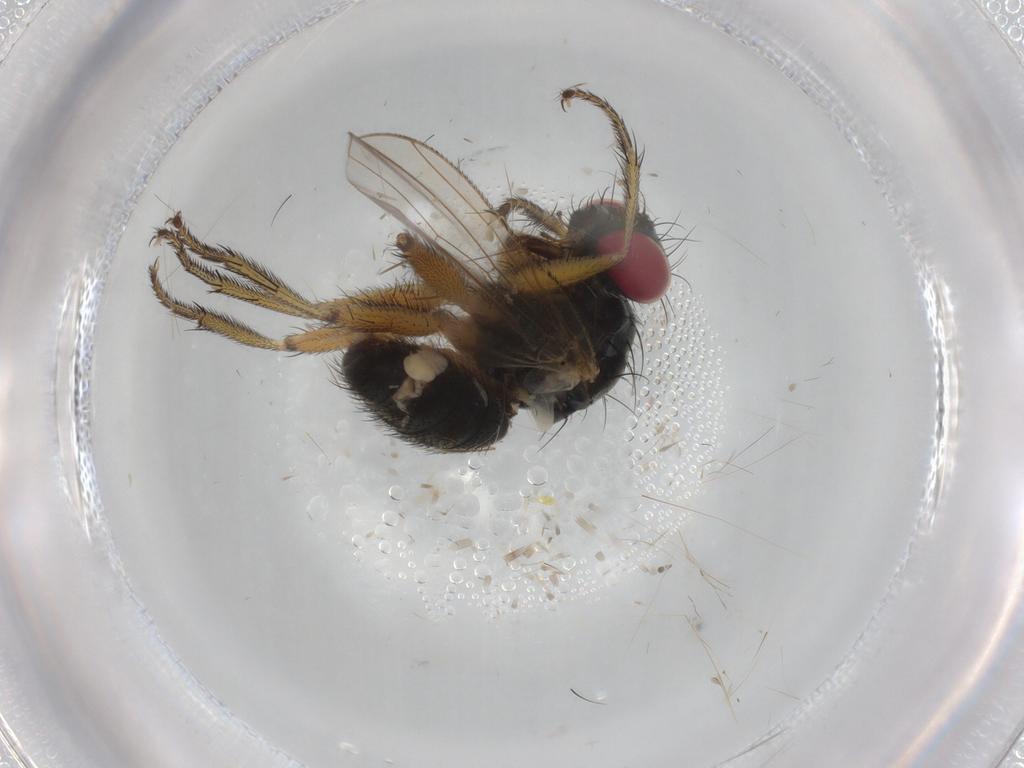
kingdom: Animalia
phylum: Arthropoda
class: Insecta
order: Diptera
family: Muscidae
